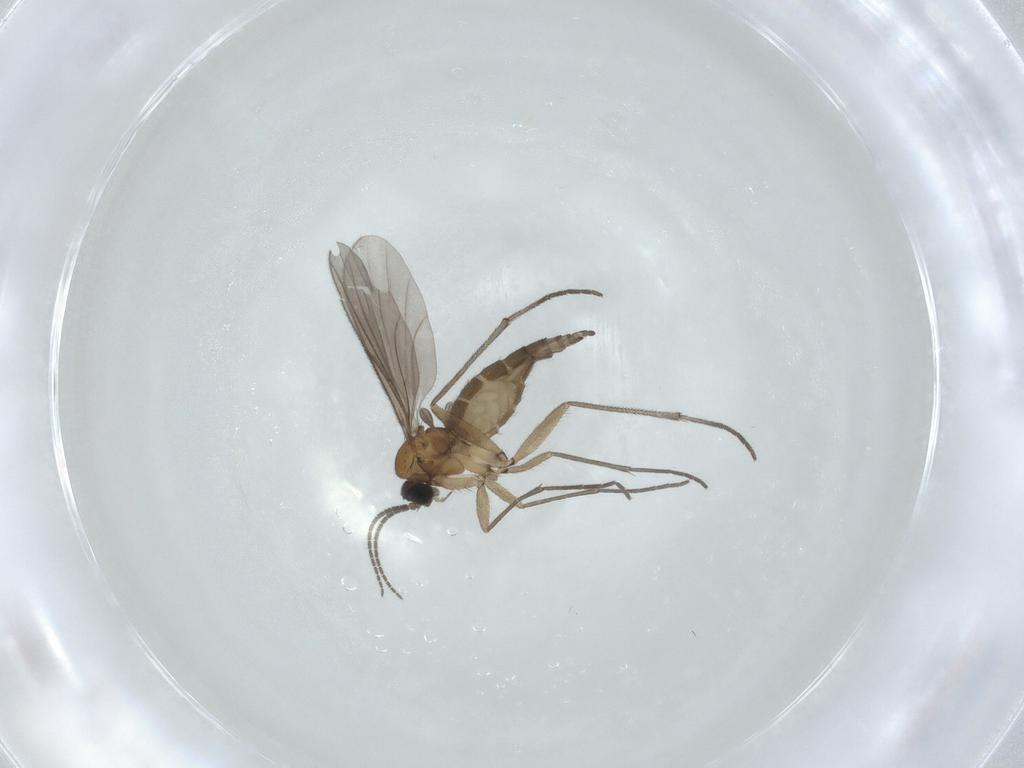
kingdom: Animalia
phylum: Arthropoda
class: Insecta
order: Diptera
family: Sciaridae
